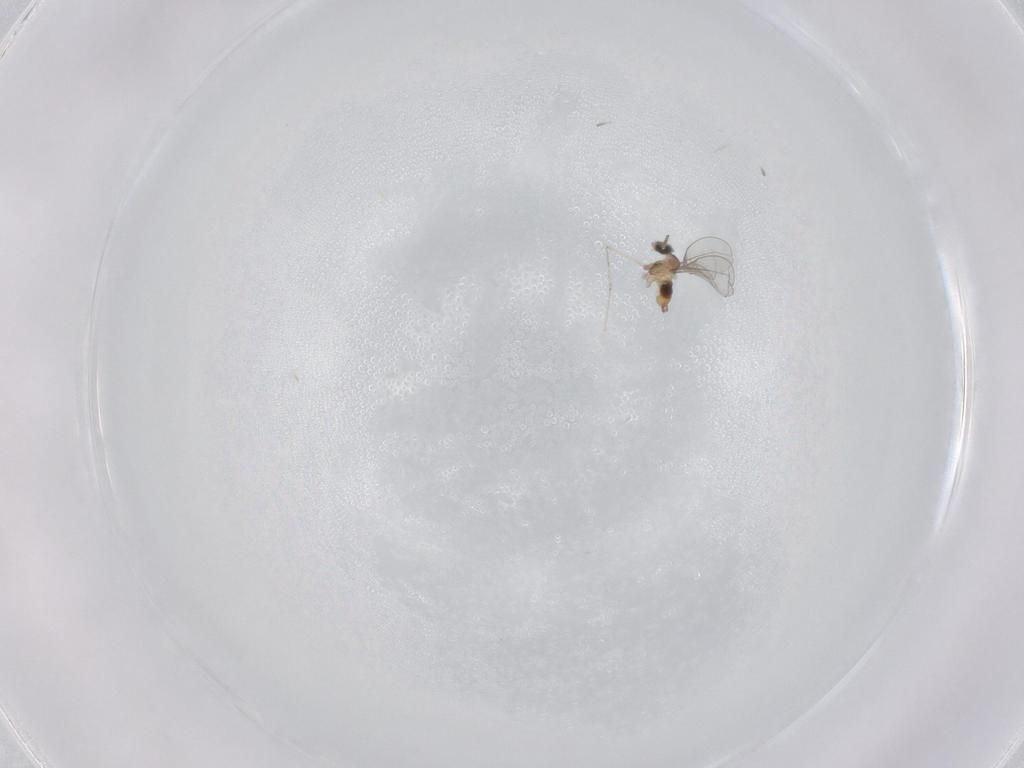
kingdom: Animalia
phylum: Arthropoda
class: Insecta
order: Diptera
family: Cecidomyiidae
